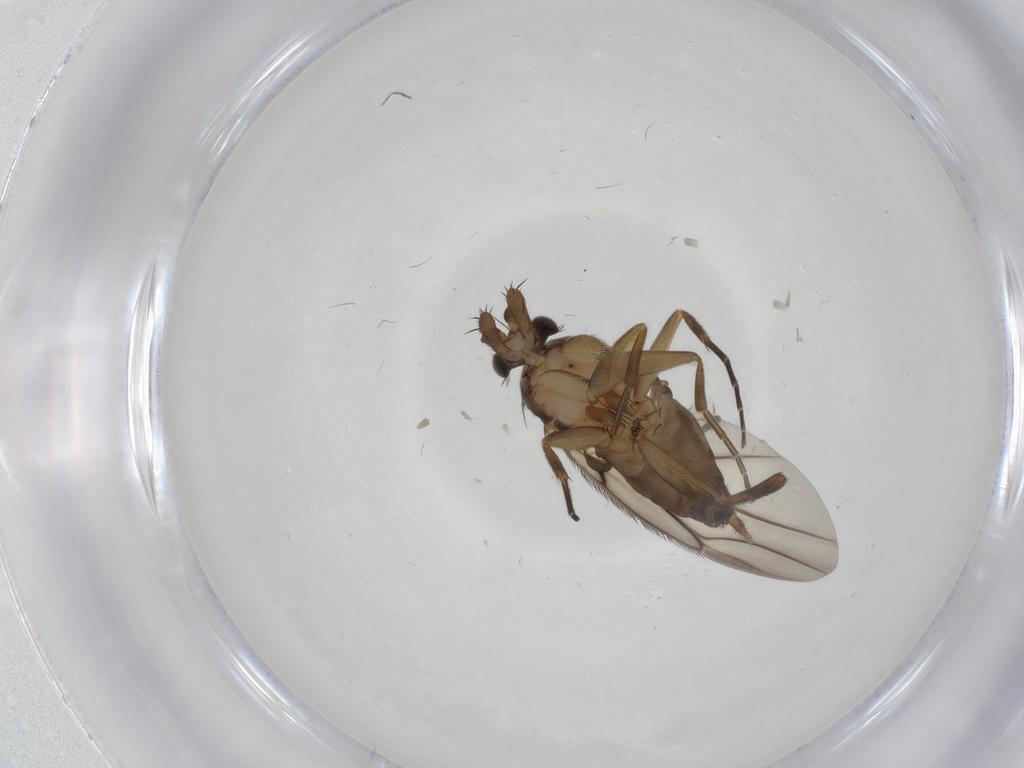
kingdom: Animalia
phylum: Arthropoda
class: Insecta
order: Diptera
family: Phoridae
